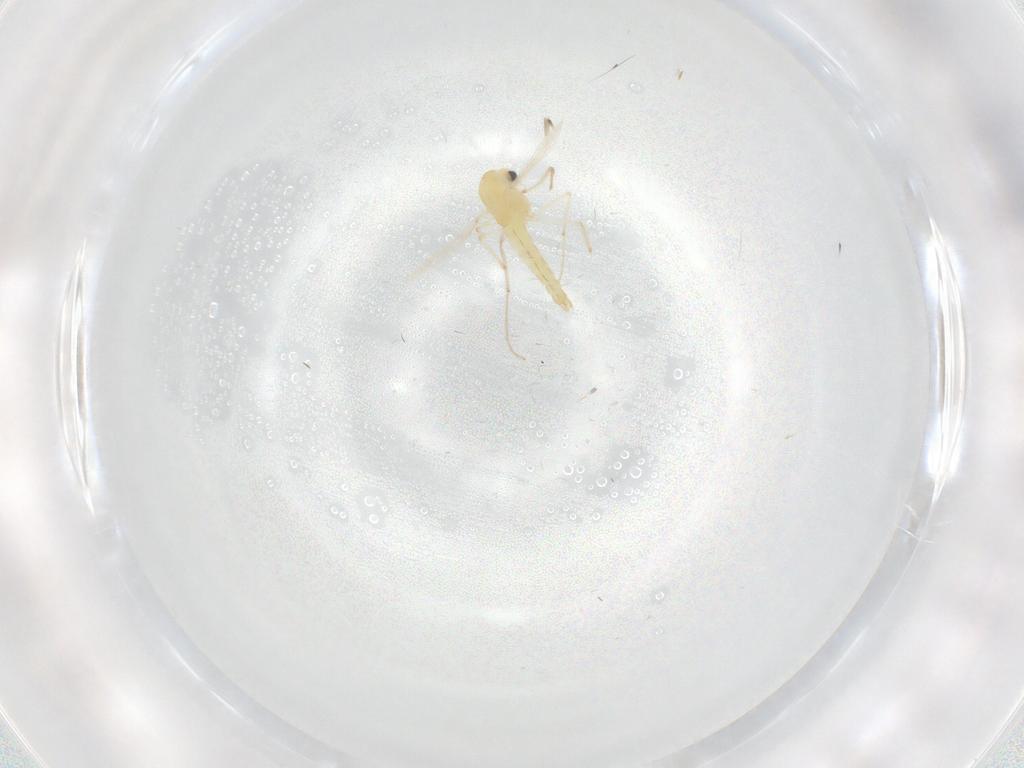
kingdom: Animalia
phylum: Arthropoda
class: Insecta
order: Diptera
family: Chironomidae
